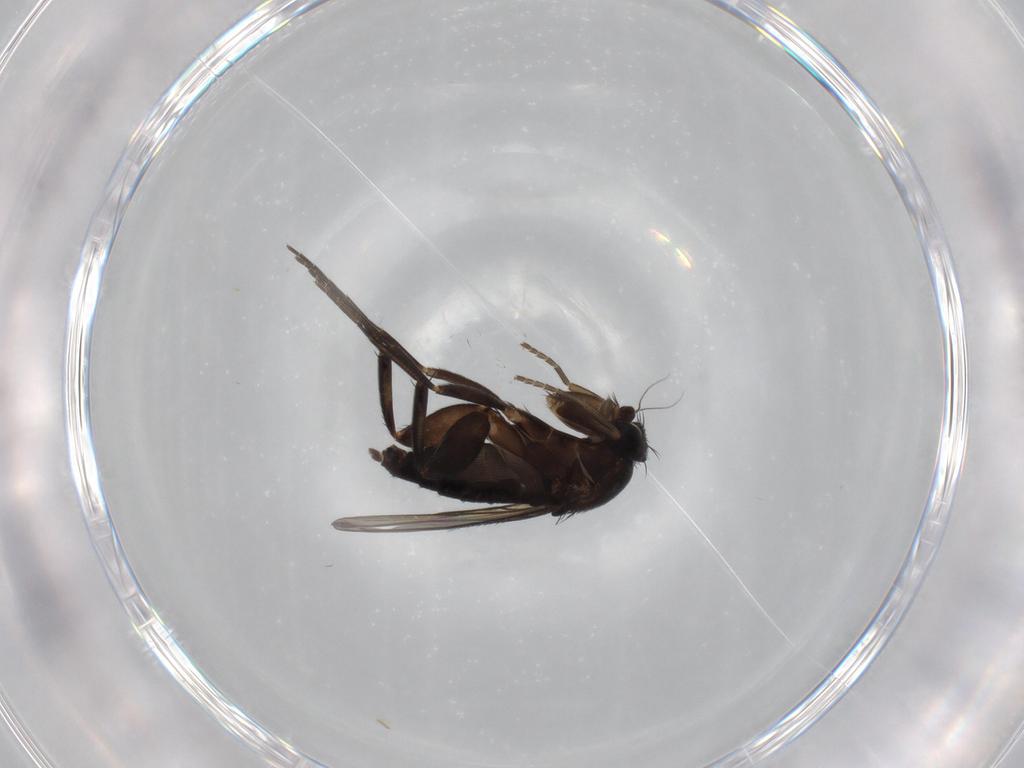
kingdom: Animalia
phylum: Arthropoda
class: Insecta
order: Diptera
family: Phoridae
